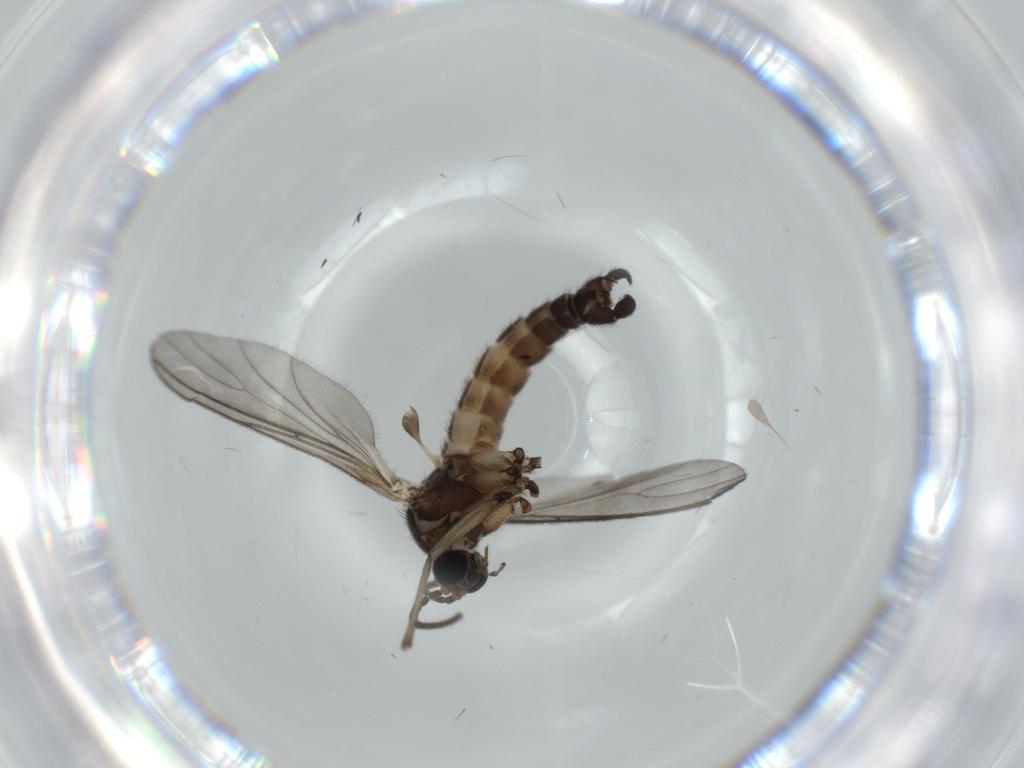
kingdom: Animalia
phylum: Arthropoda
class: Insecta
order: Diptera
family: Sciaridae
